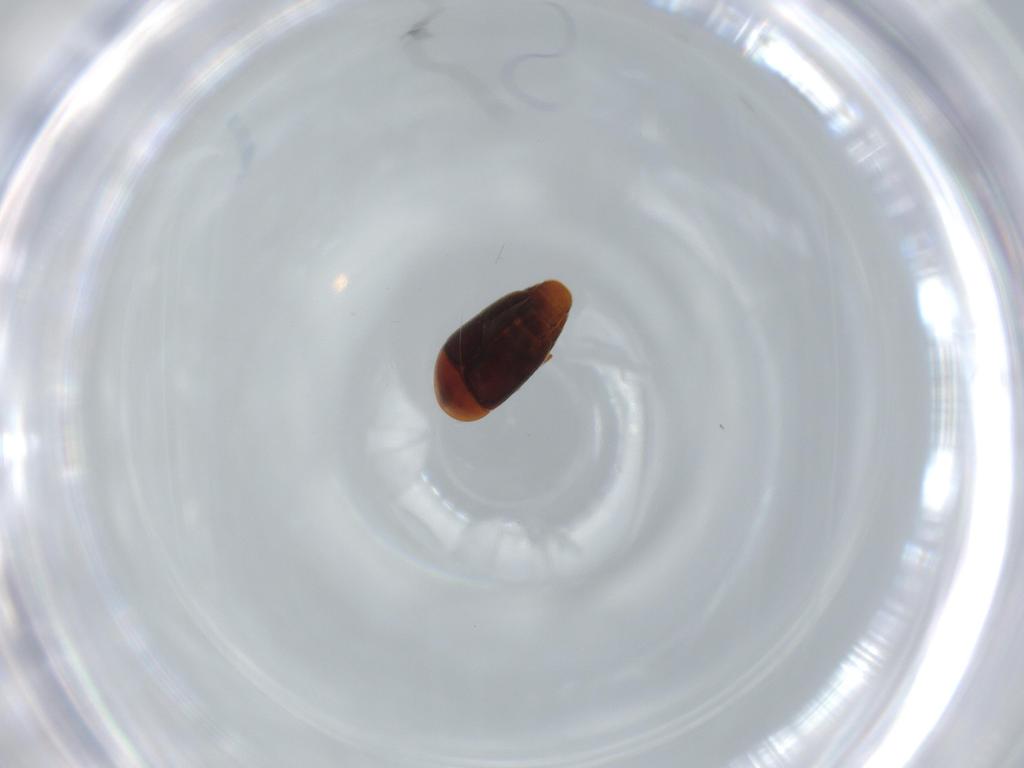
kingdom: Animalia
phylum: Arthropoda
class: Insecta
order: Coleoptera
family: Corylophidae
